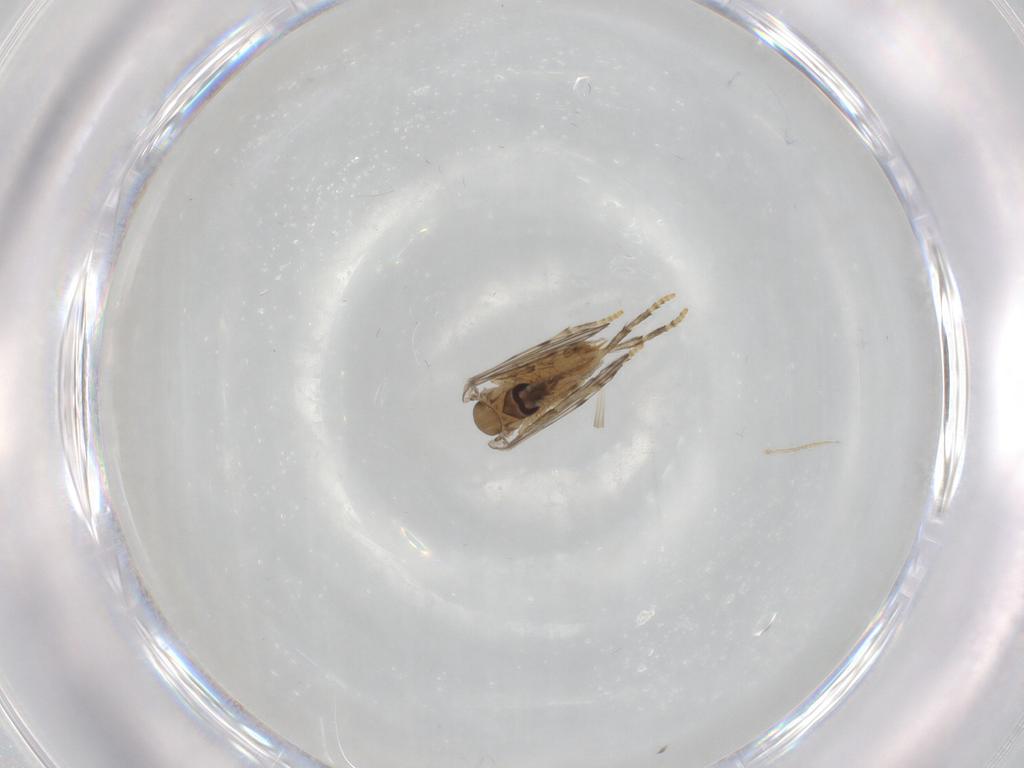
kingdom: Animalia
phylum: Arthropoda
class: Insecta
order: Diptera
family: Psychodidae
